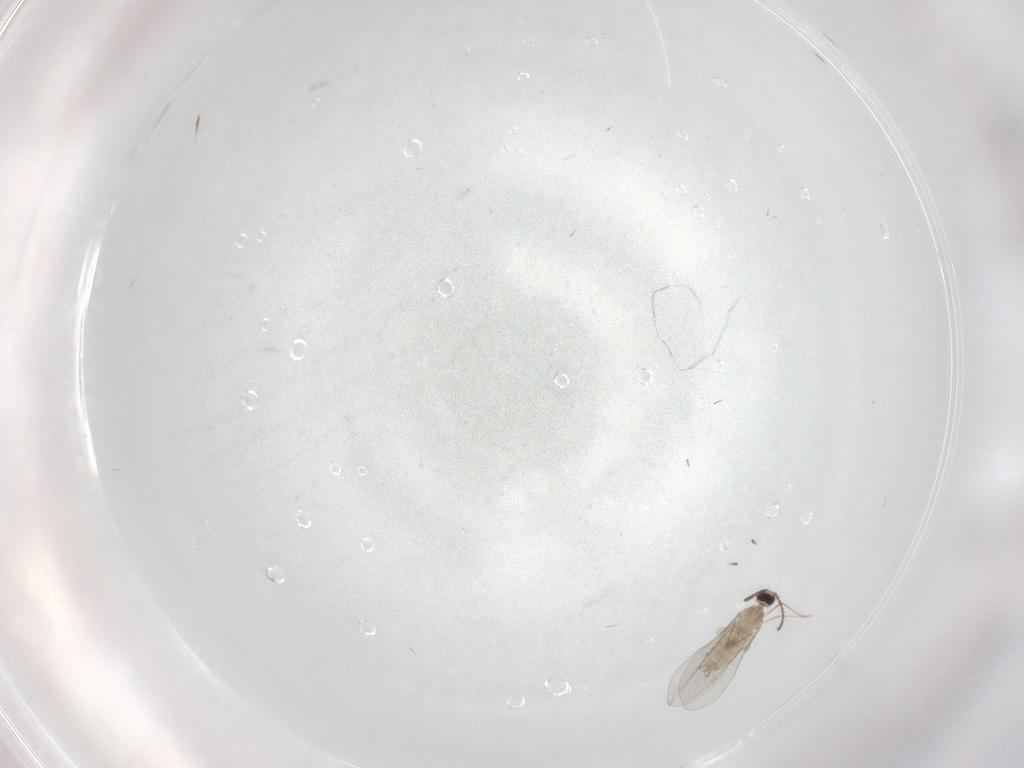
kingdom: Animalia
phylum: Arthropoda
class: Insecta
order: Diptera
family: Cecidomyiidae
